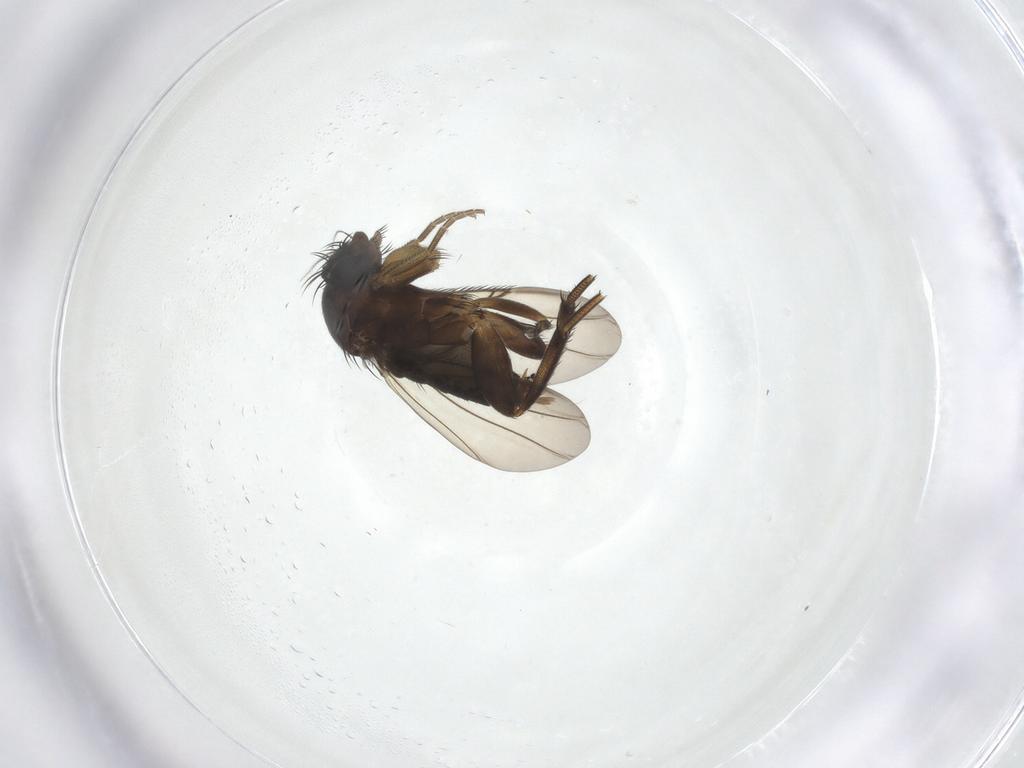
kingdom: Animalia
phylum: Arthropoda
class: Insecta
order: Diptera
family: Phoridae
